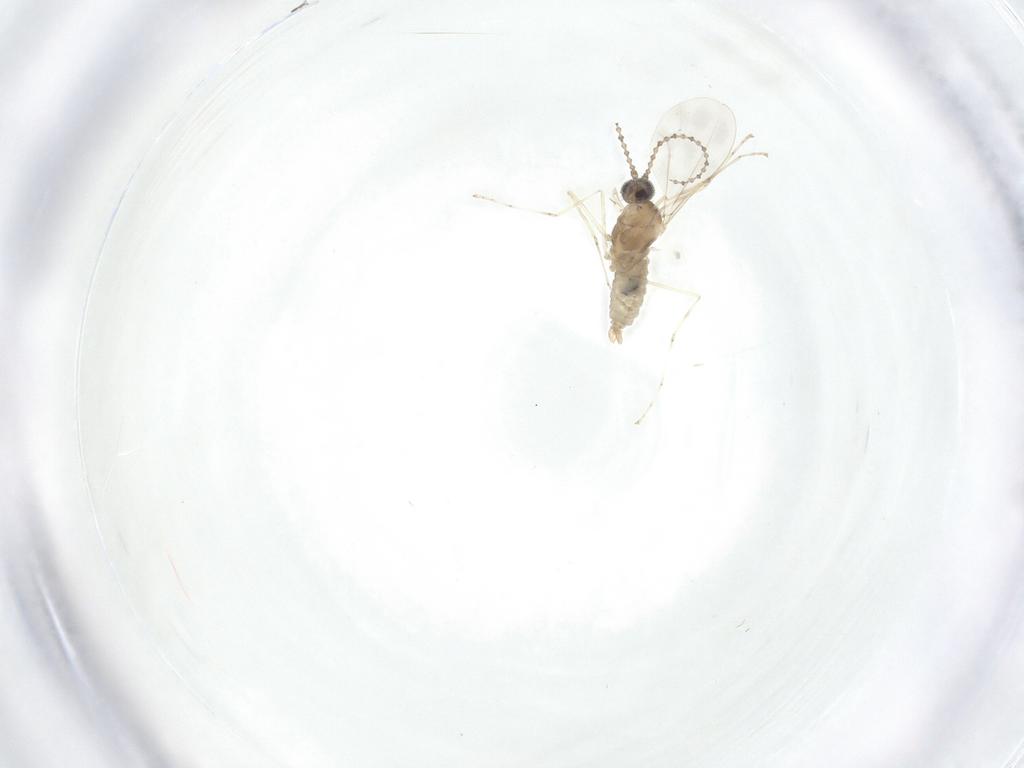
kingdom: Animalia
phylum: Arthropoda
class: Insecta
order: Diptera
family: Cecidomyiidae
